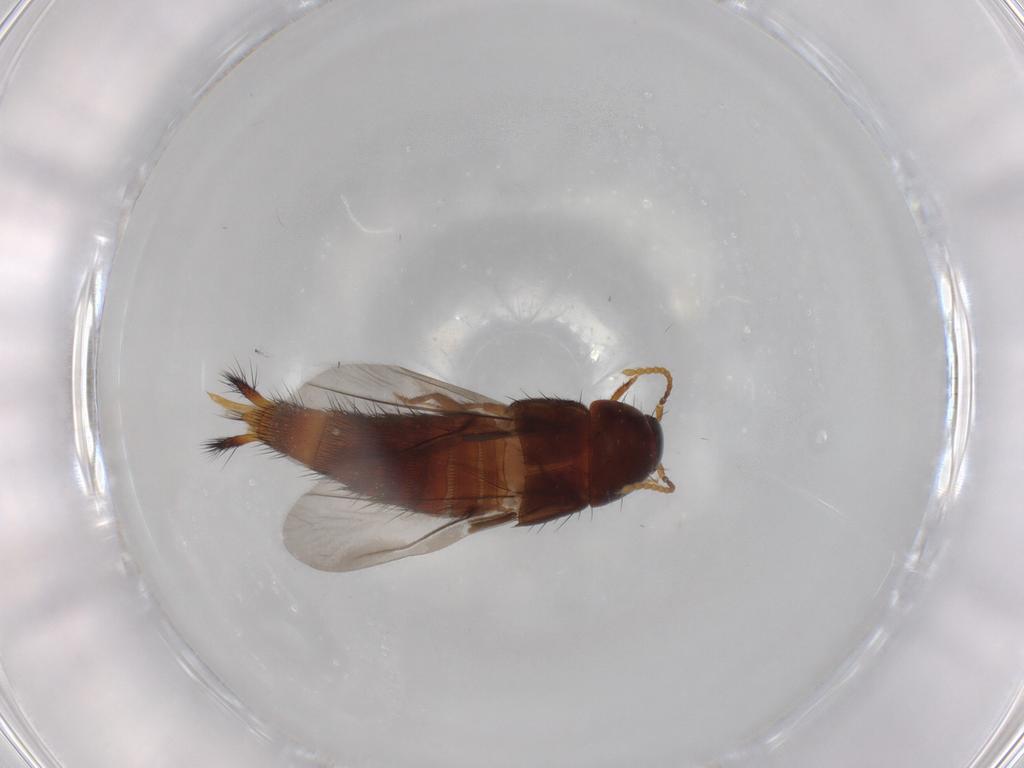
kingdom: Animalia
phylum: Arthropoda
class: Insecta
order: Coleoptera
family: Staphylinidae
